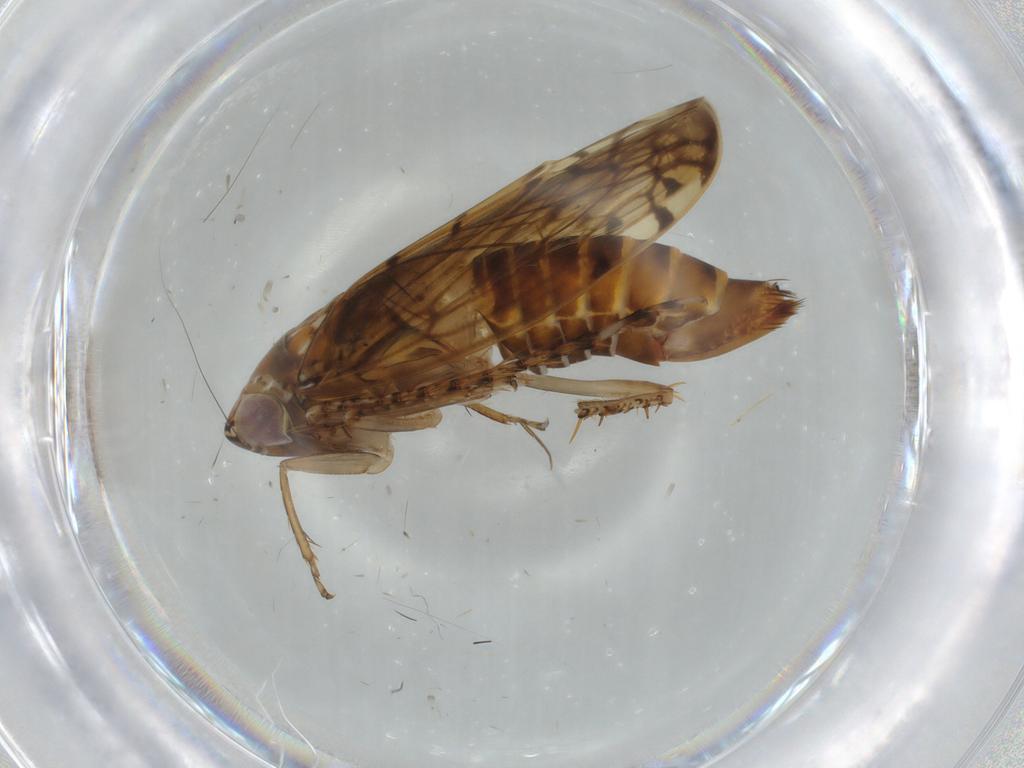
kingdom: Animalia
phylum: Arthropoda
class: Insecta
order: Hemiptera
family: Cicadellidae
